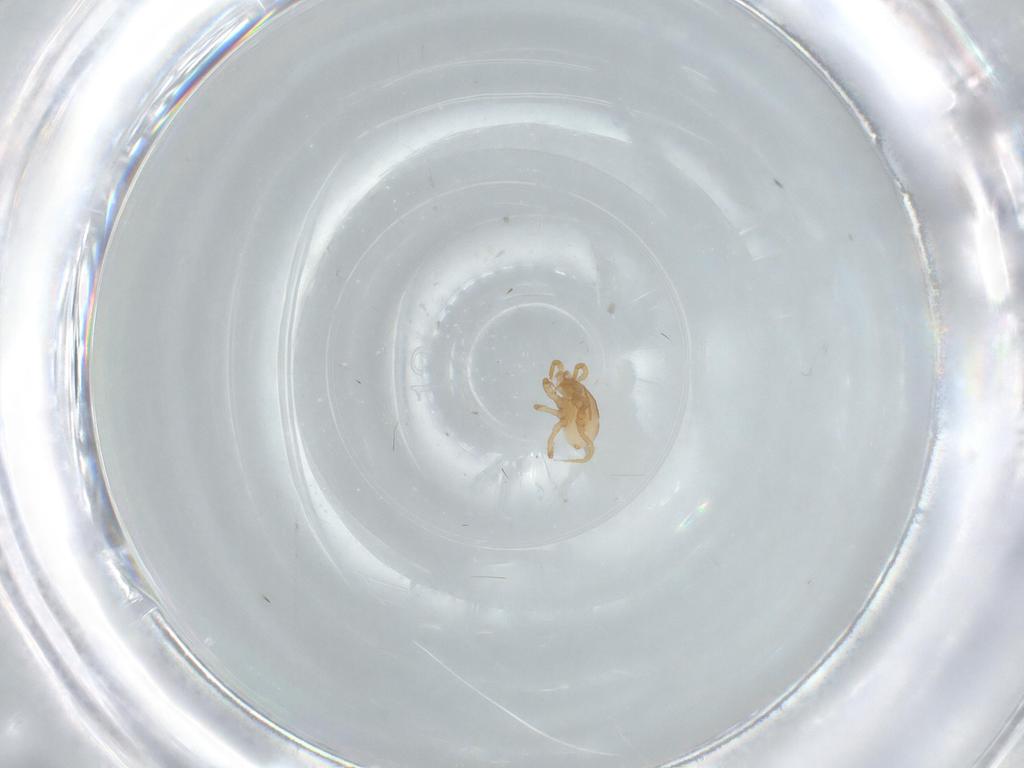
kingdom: Animalia
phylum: Arthropoda
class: Arachnida
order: Mesostigmata
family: Parasitidae
